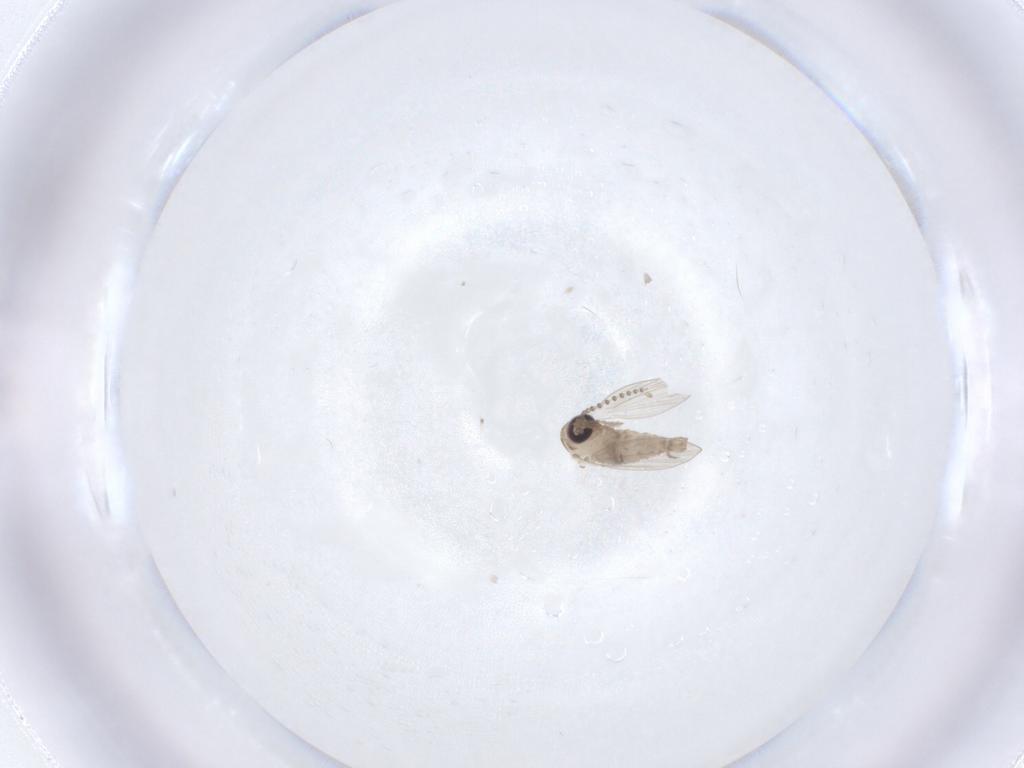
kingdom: Animalia
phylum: Arthropoda
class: Insecta
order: Diptera
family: Psychodidae
